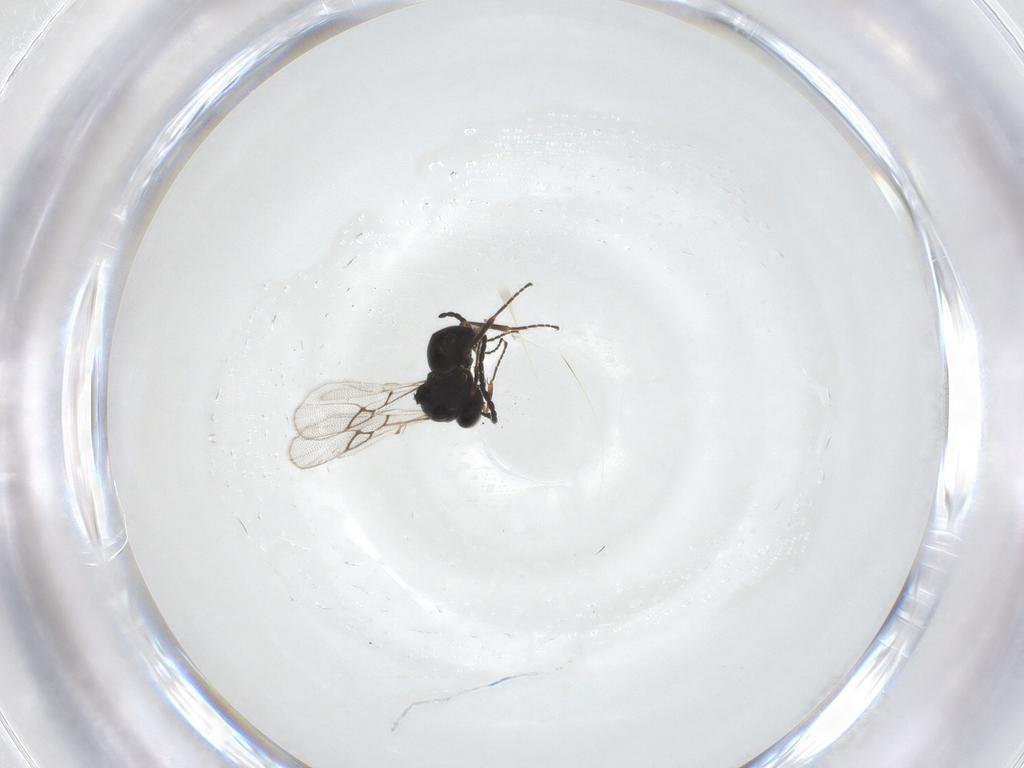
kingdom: Animalia
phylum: Arthropoda
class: Insecta
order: Hymenoptera
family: Figitidae
